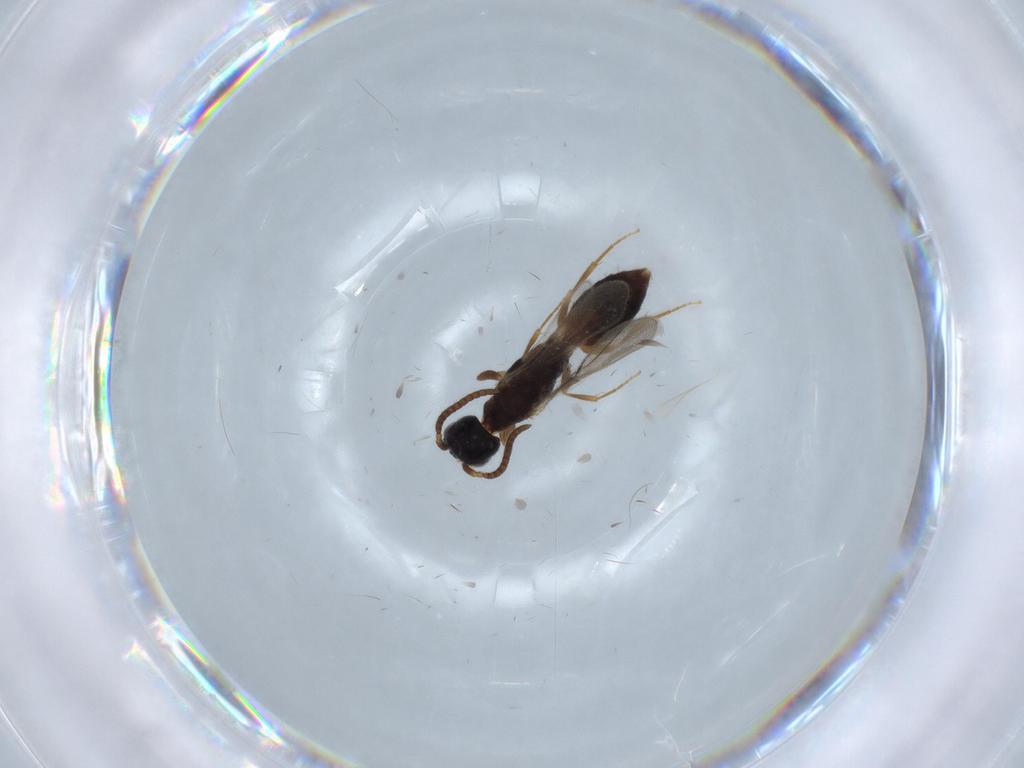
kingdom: Animalia
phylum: Arthropoda
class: Insecta
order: Hymenoptera
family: Bethylidae
